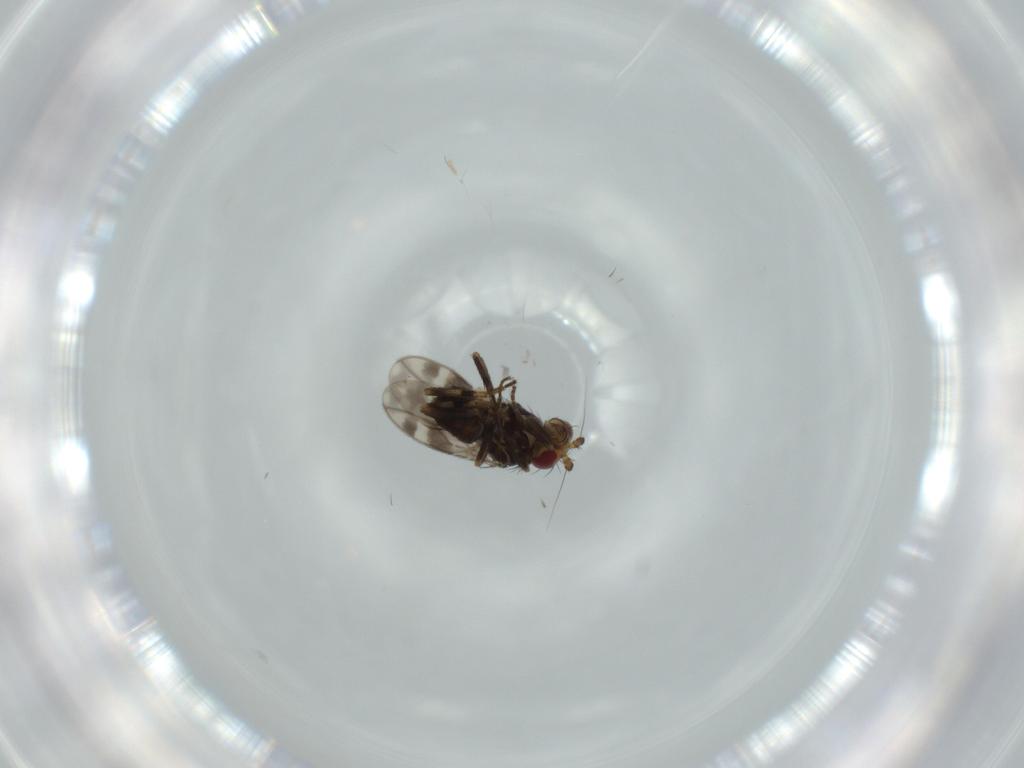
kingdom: Animalia
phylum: Arthropoda
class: Insecta
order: Diptera
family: Sphaeroceridae
